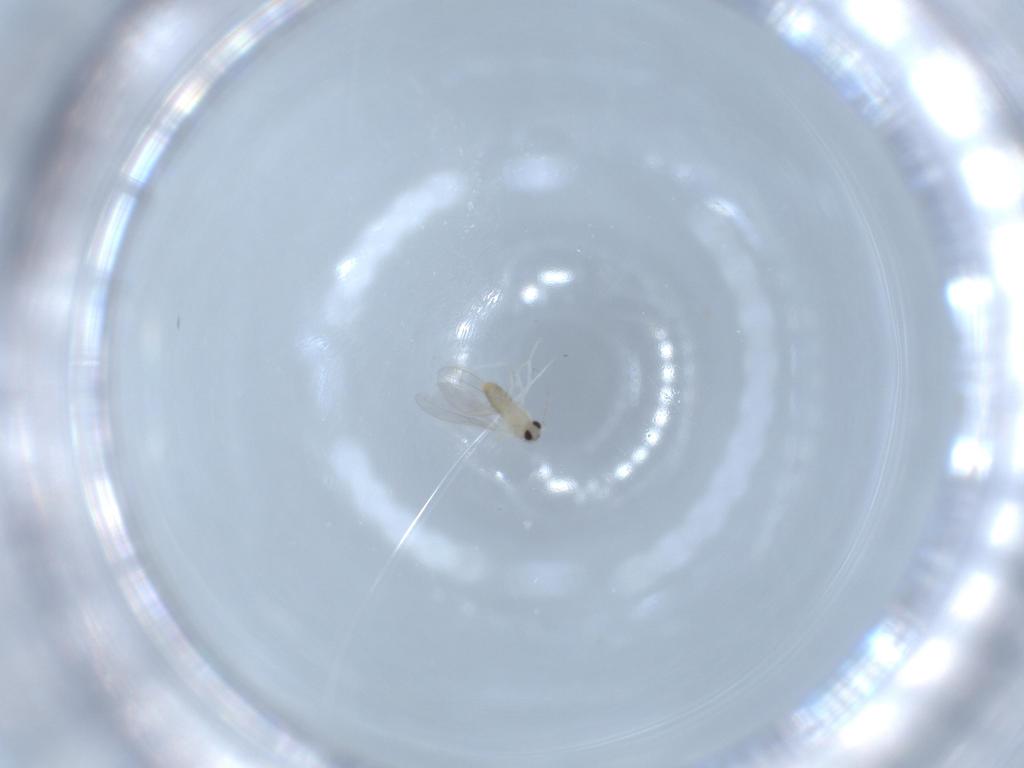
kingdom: Animalia
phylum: Arthropoda
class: Insecta
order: Diptera
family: Cecidomyiidae
